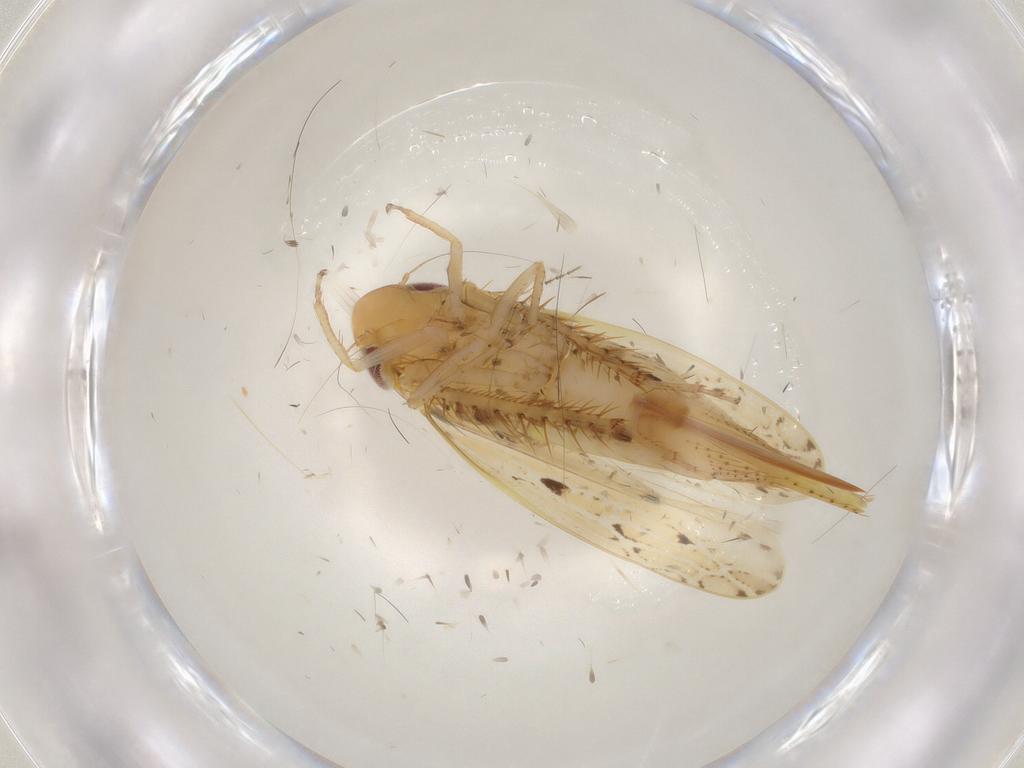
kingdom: Animalia
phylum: Arthropoda
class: Insecta
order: Hemiptera
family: Cicadellidae
